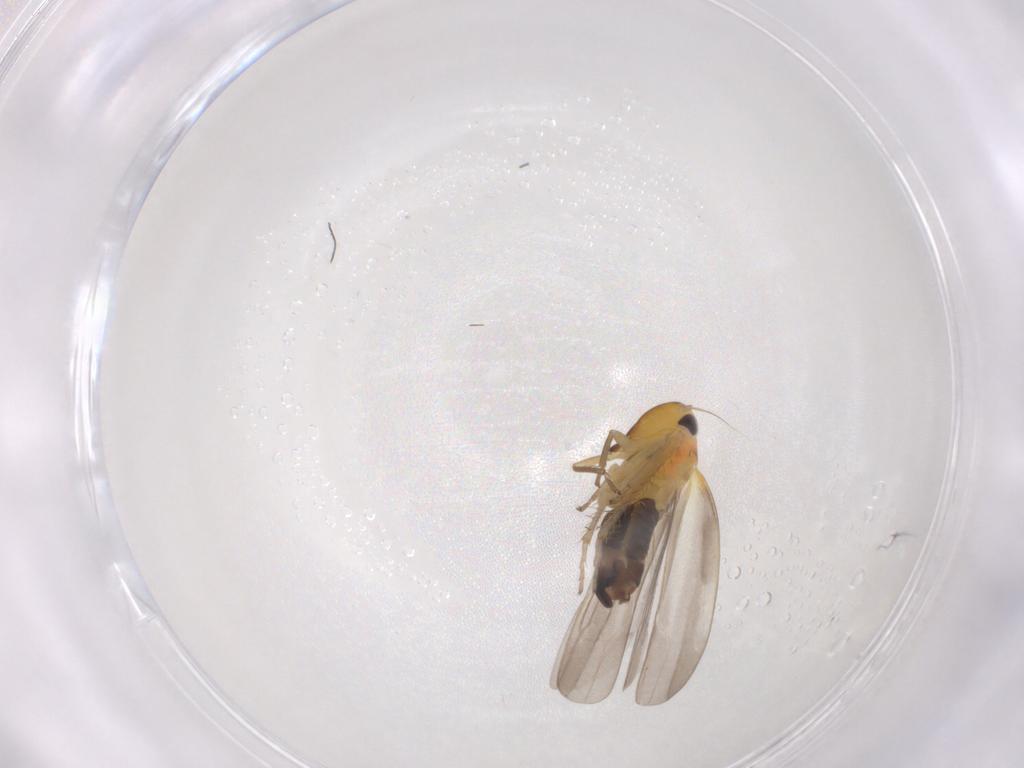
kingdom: Animalia
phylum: Arthropoda
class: Insecta
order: Hemiptera
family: Cicadellidae
